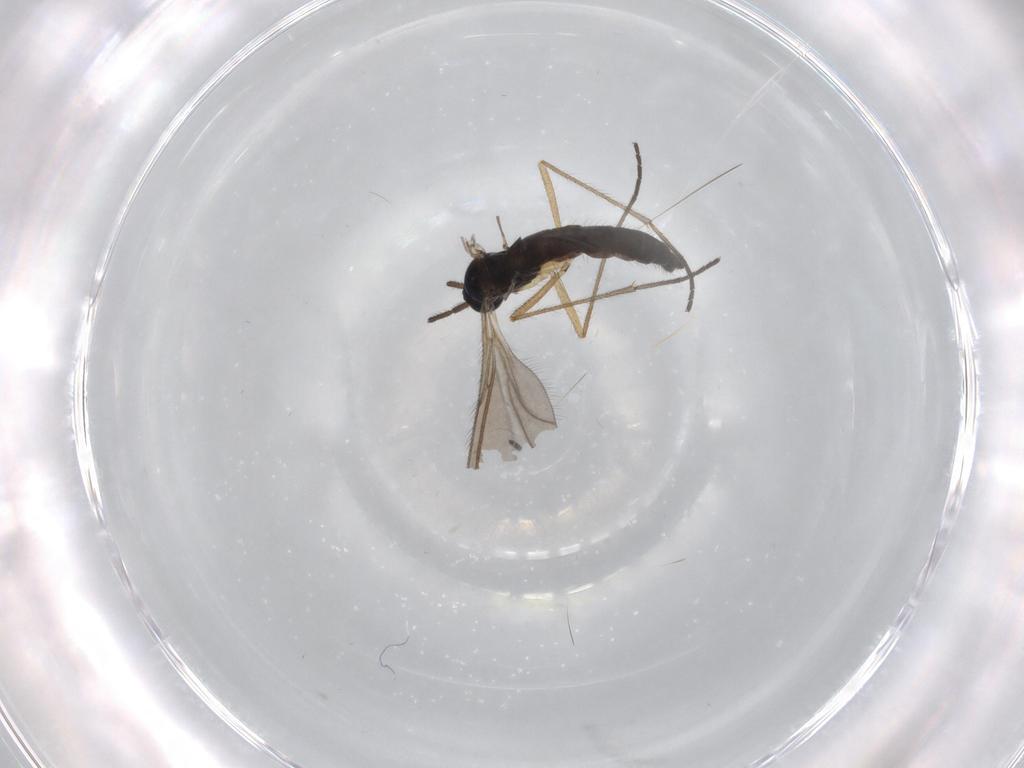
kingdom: Animalia
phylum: Arthropoda
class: Insecta
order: Diptera
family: Sciaridae
